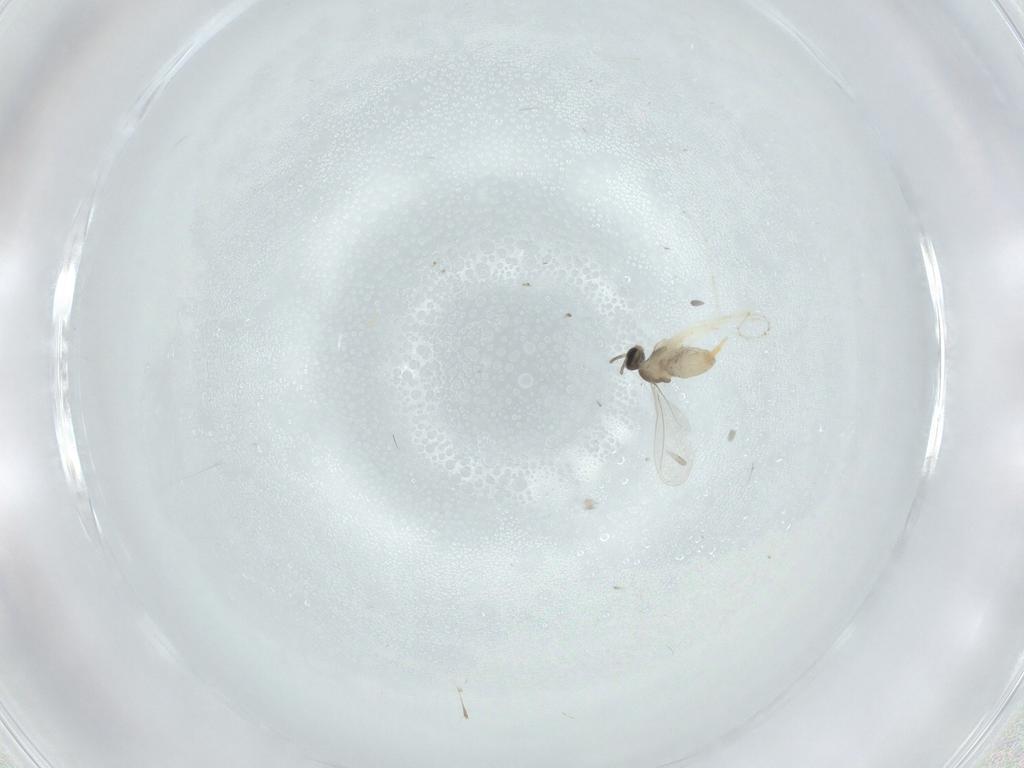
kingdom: Animalia
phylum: Arthropoda
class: Insecta
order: Diptera
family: Cecidomyiidae
